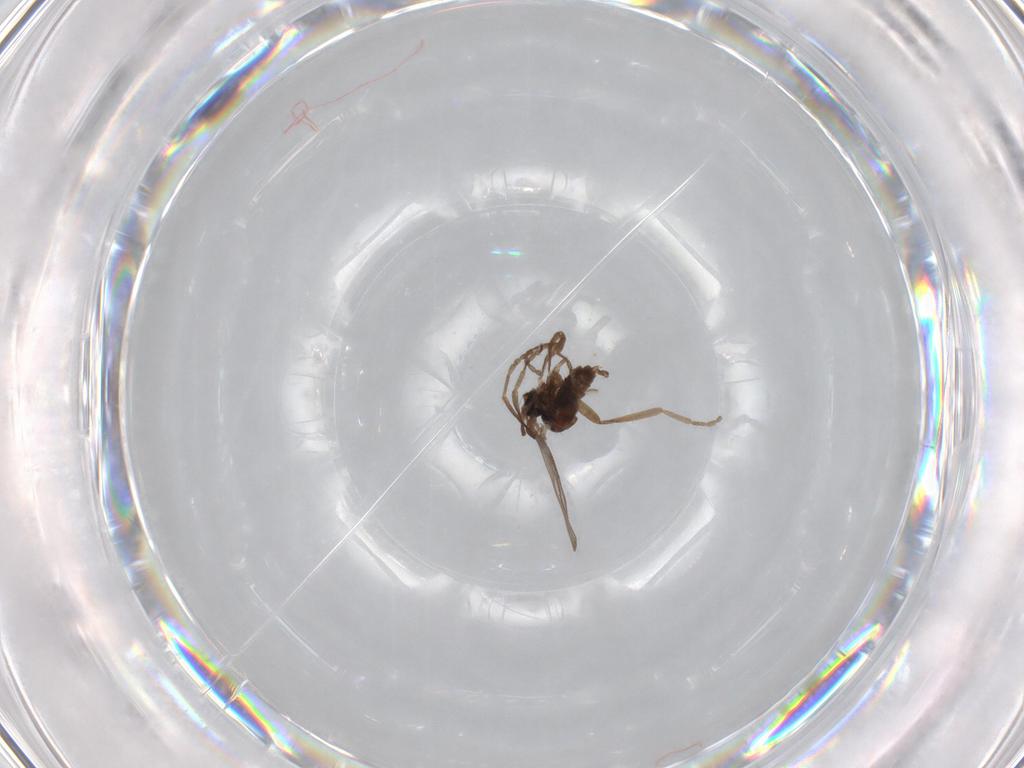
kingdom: Animalia
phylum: Arthropoda
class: Insecta
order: Diptera
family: Cecidomyiidae
